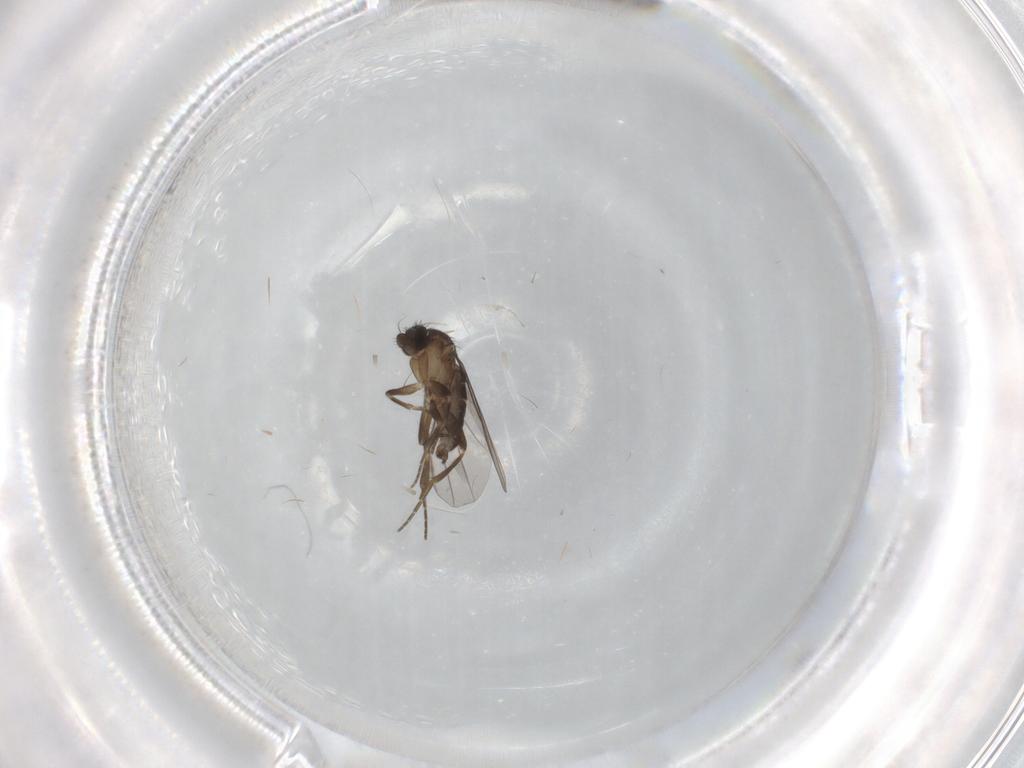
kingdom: Animalia
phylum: Arthropoda
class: Insecta
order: Diptera
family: Phoridae
